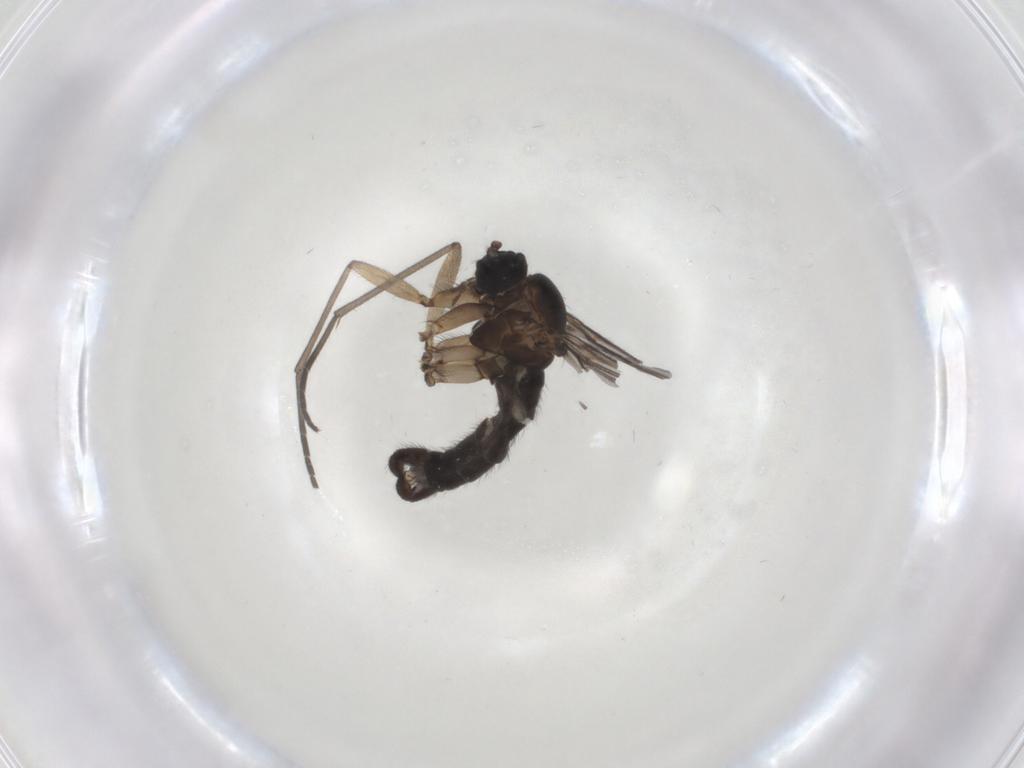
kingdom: Animalia
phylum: Arthropoda
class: Insecta
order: Diptera
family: Sciaridae
